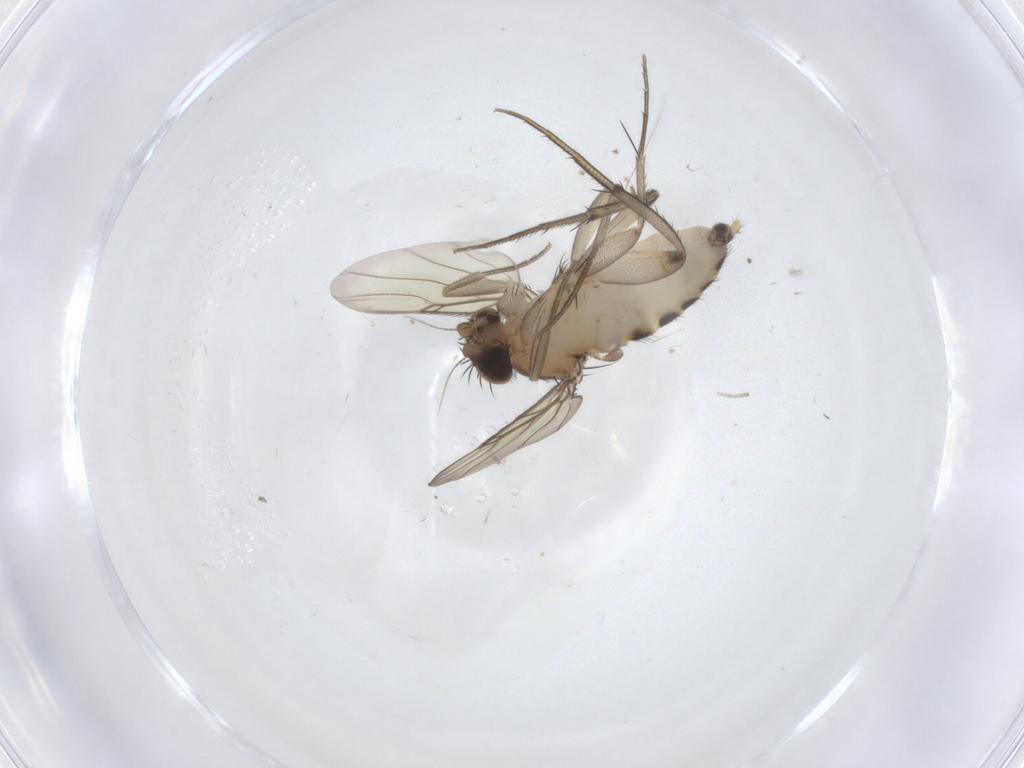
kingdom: Animalia
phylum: Arthropoda
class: Insecta
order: Diptera
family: Phoridae
